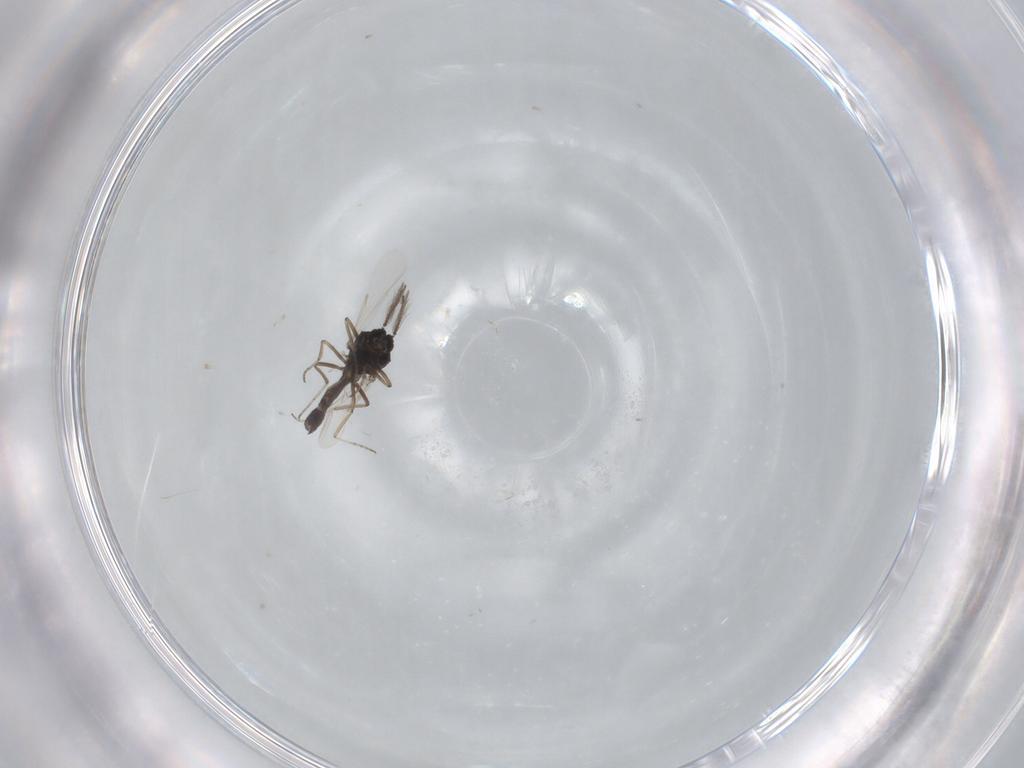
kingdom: Animalia
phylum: Arthropoda
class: Insecta
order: Diptera
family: Ceratopogonidae
